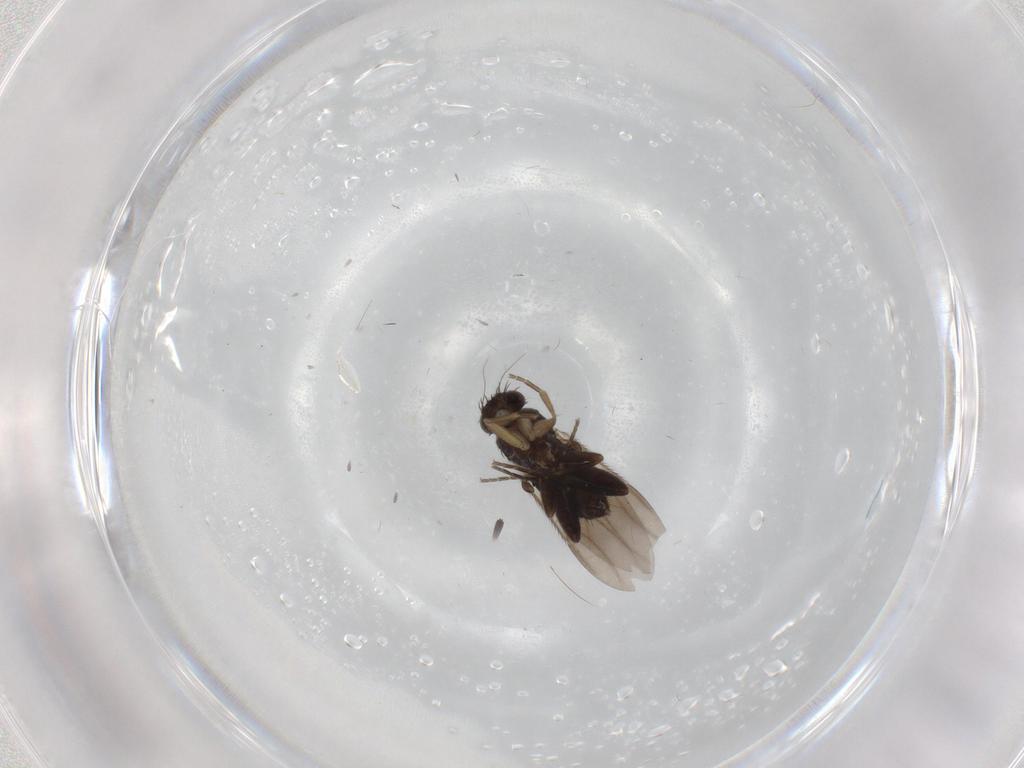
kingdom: Animalia
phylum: Arthropoda
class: Insecta
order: Diptera
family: Phoridae
